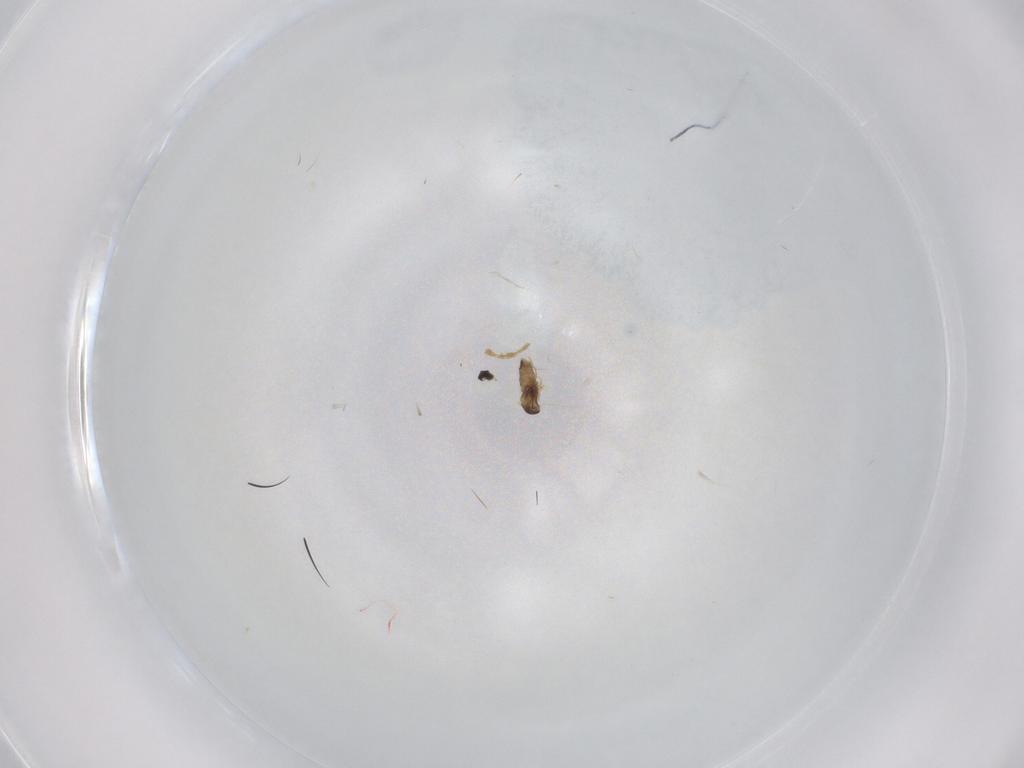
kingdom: Animalia
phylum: Arthropoda
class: Insecta
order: Diptera
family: Cecidomyiidae
